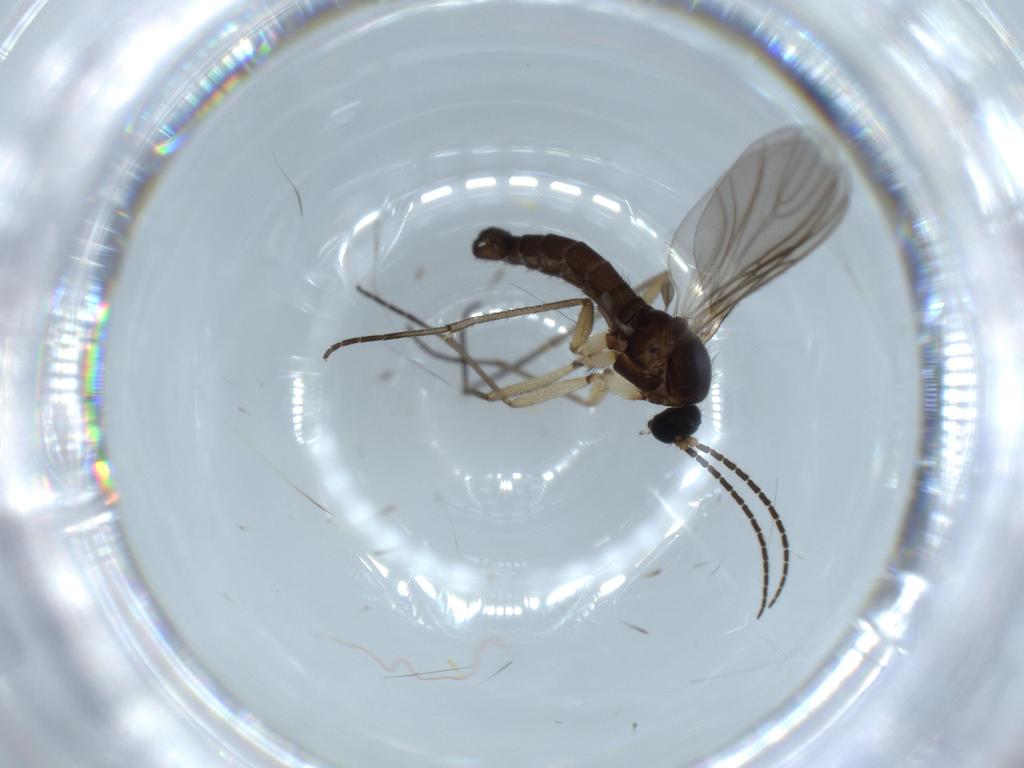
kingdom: Animalia
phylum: Arthropoda
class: Insecta
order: Diptera
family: Sciaridae
